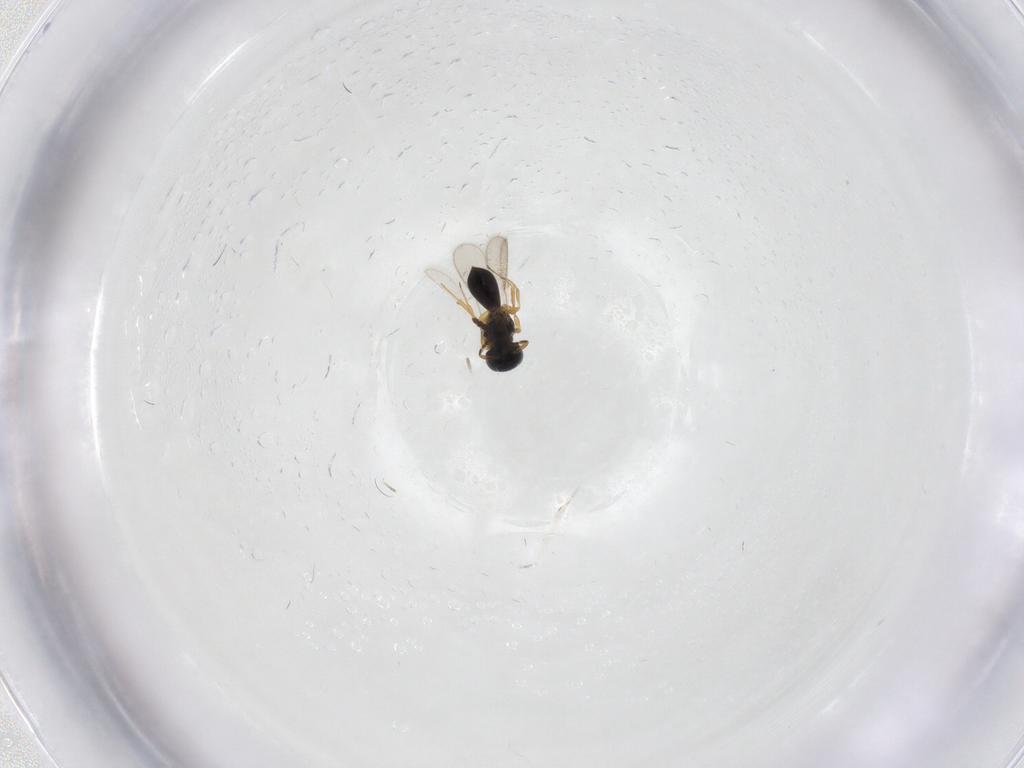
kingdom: Animalia
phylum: Arthropoda
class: Insecta
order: Hymenoptera
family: Scelionidae
